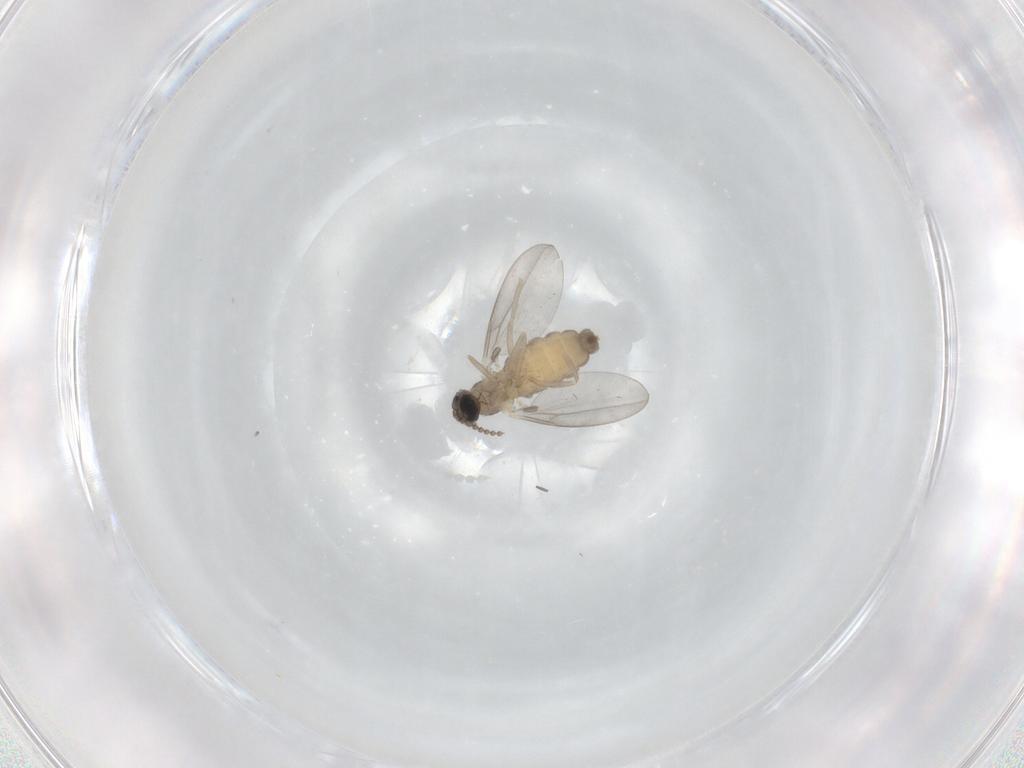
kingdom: Animalia
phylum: Arthropoda
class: Insecta
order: Diptera
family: Cecidomyiidae
